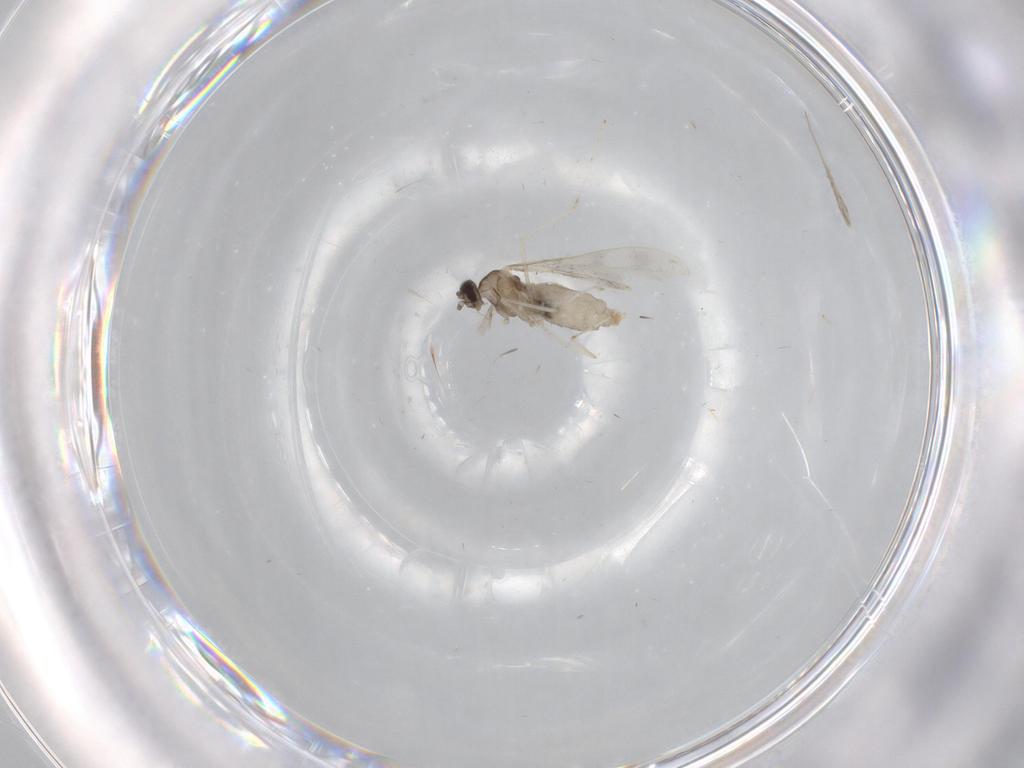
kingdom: Animalia
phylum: Arthropoda
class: Insecta
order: Diptera
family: Cecidomyiidae
